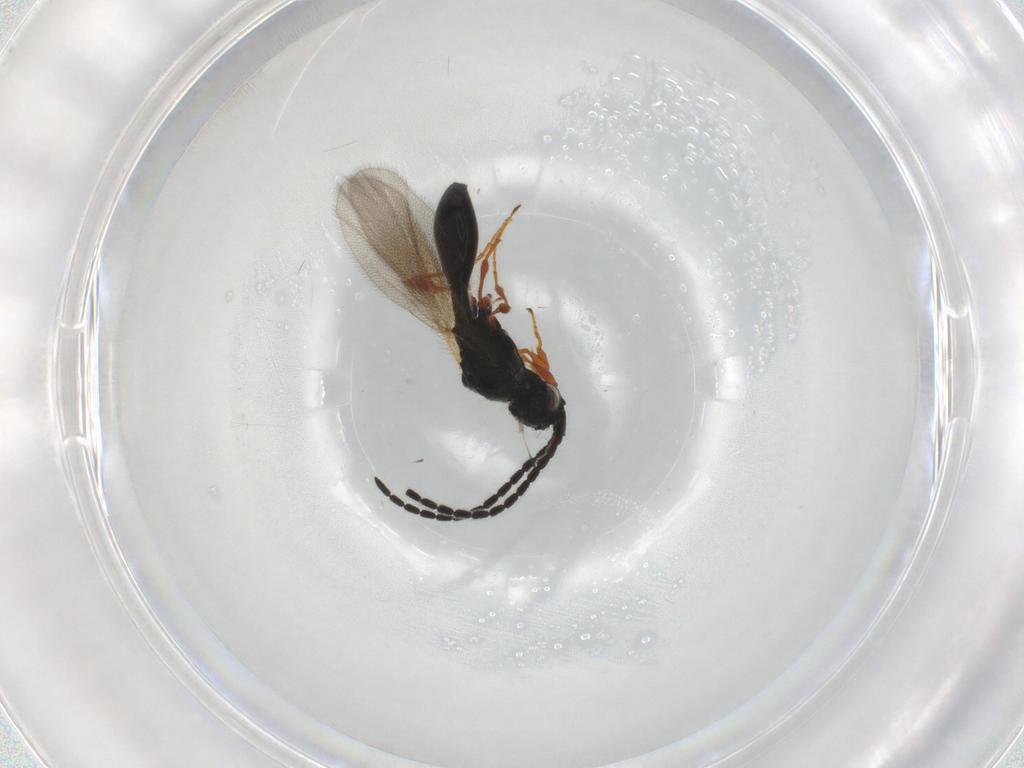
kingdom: Animalia
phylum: Arthropoda
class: Insecta
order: Hymenoptera
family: Diapriidae
